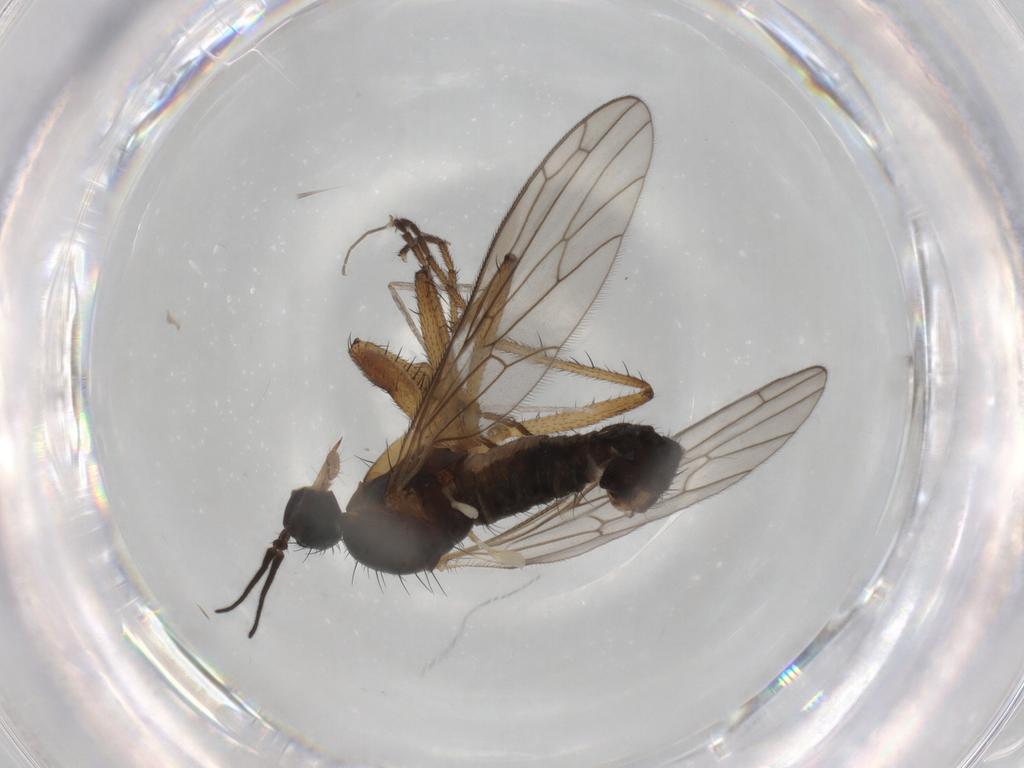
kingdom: Animalia
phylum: Arthropoda
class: Insecta
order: Diptera
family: Empididae
